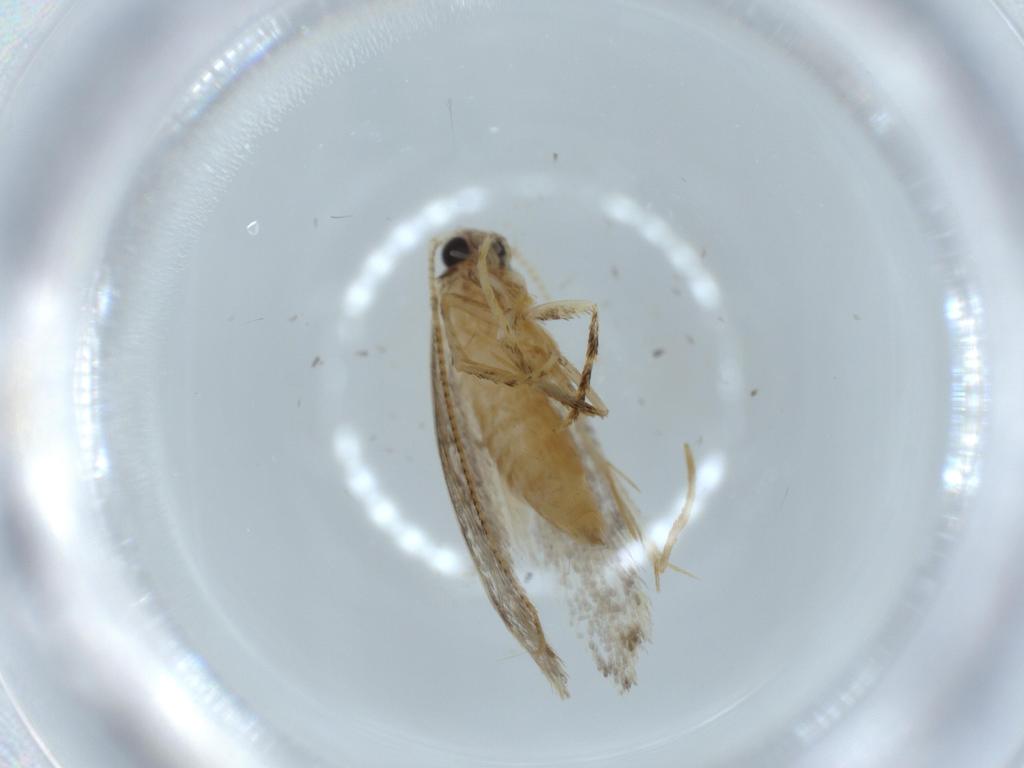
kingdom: Animalia
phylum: Arthropoda
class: Insecta
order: Lepidoptera
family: Tineidae
